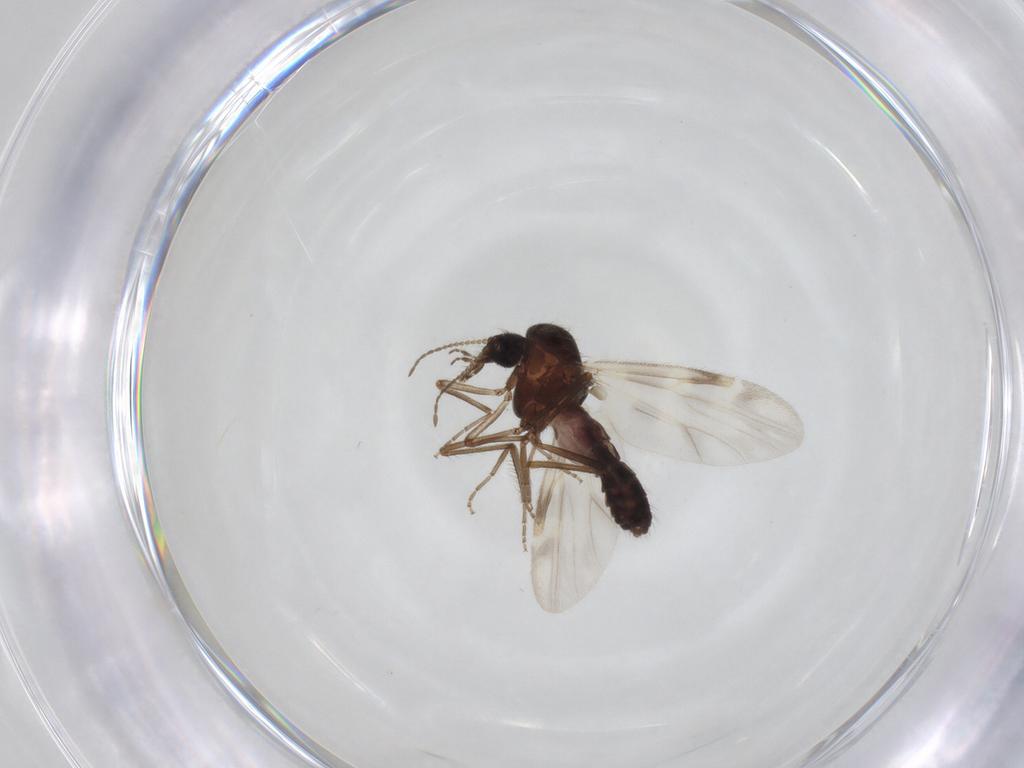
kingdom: Animalia
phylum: Arthropoda
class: Insecta
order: Diptera
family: Ceratopogonidae
